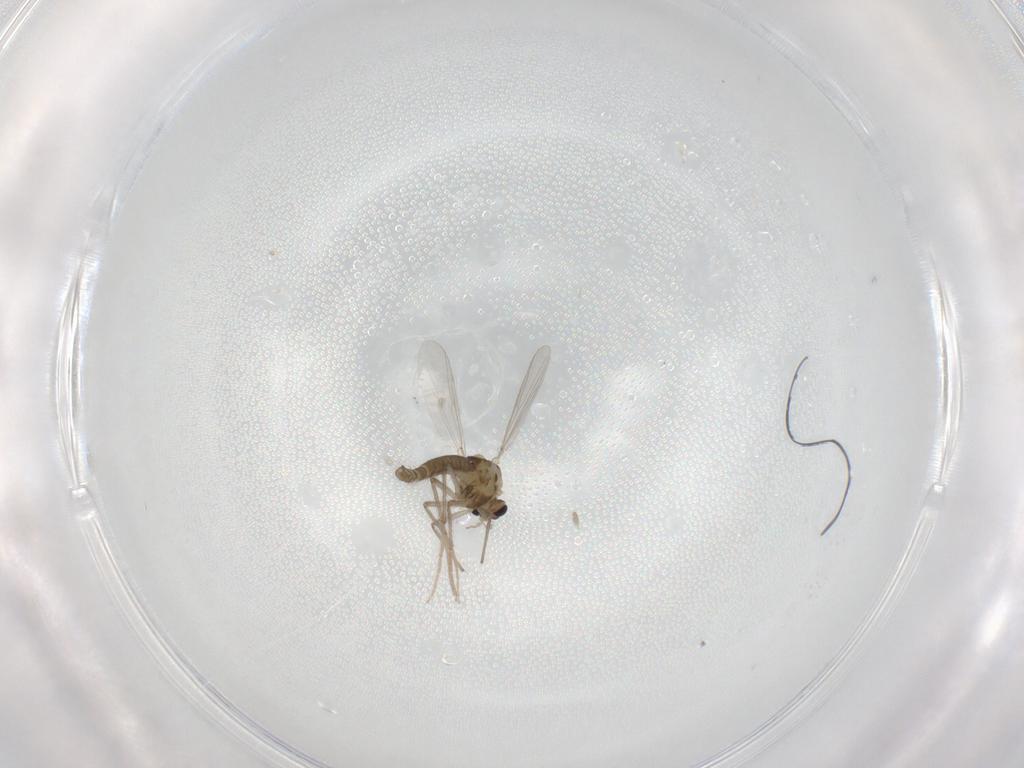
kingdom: Animalia
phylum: Arthropoda
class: Insecta
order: Diptera
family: Chironomidae
